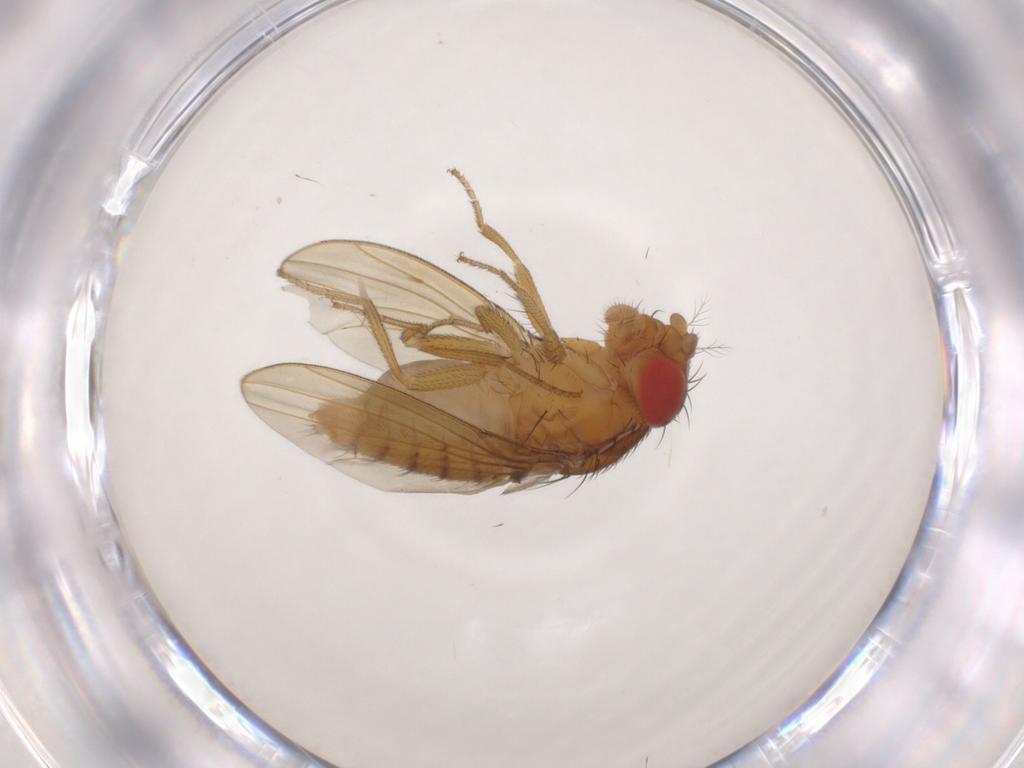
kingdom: Animalia
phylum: Arthropoda
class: Insecta
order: Diptera
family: Drosophilidae
